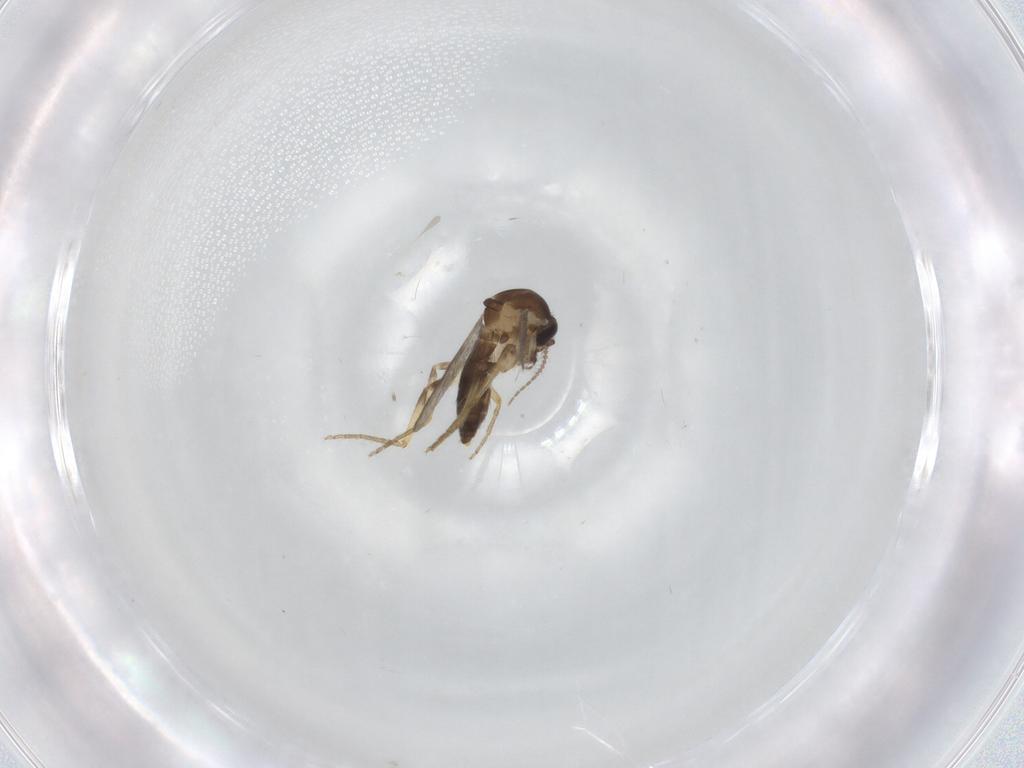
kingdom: Animalia
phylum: Arthropoda
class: Insecta
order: Diptera
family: Ceratopogonidae
